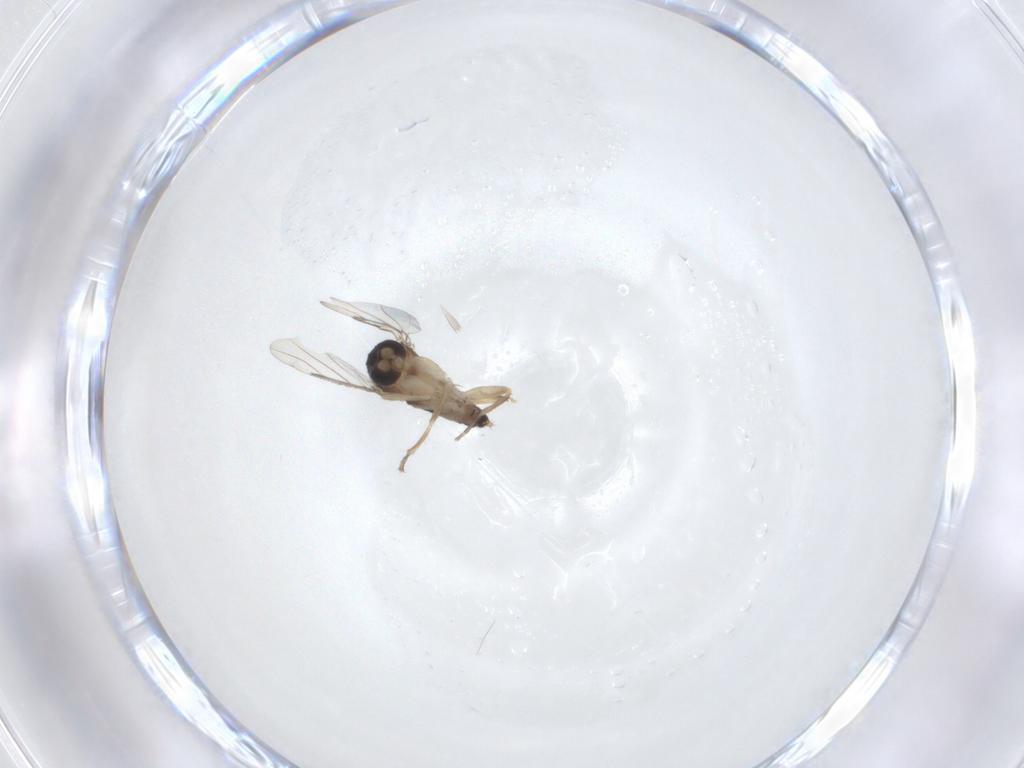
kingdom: Animalia
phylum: Arthropoda
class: Insecta
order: Diptera
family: Phoridae
